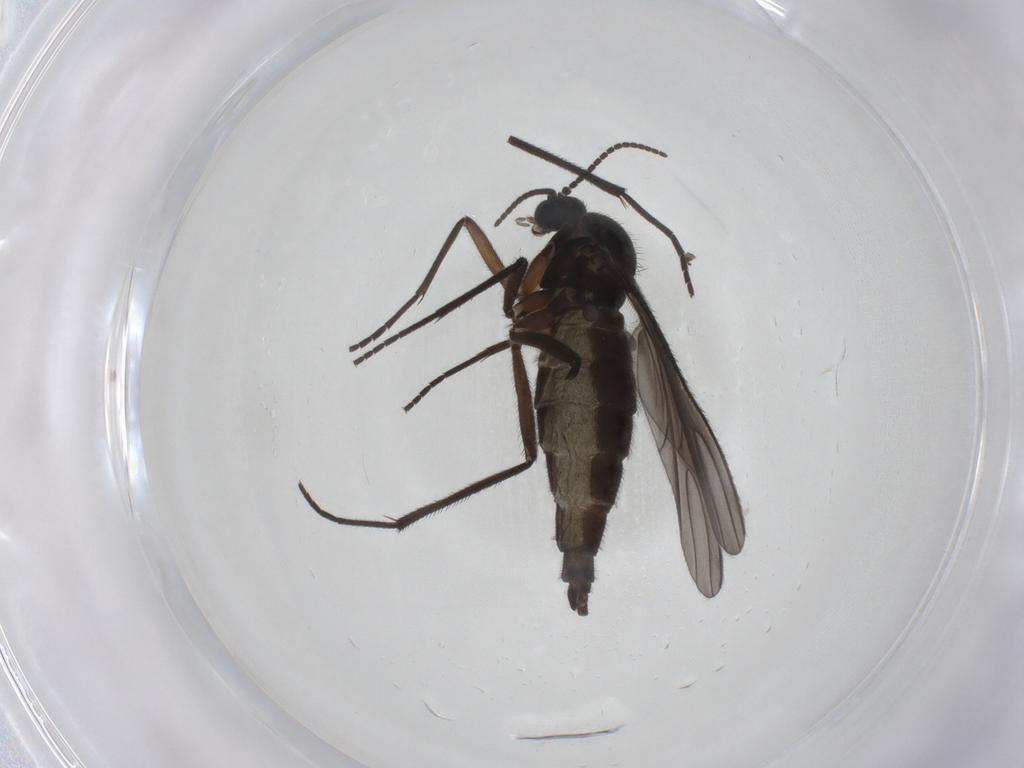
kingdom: Animalia
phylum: Arthropoda
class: Insecta
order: Diptera
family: Sciaridae
